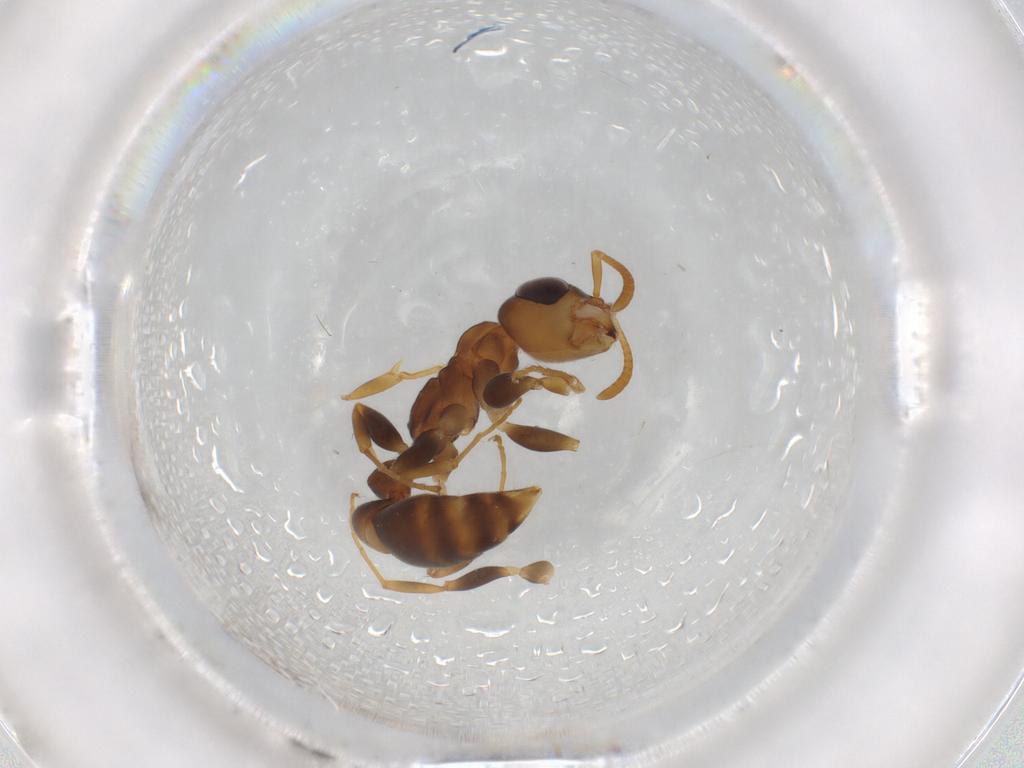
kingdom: Animalia
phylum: Arthropoda
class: Insecta
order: Hymenoptera
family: Formicidae
